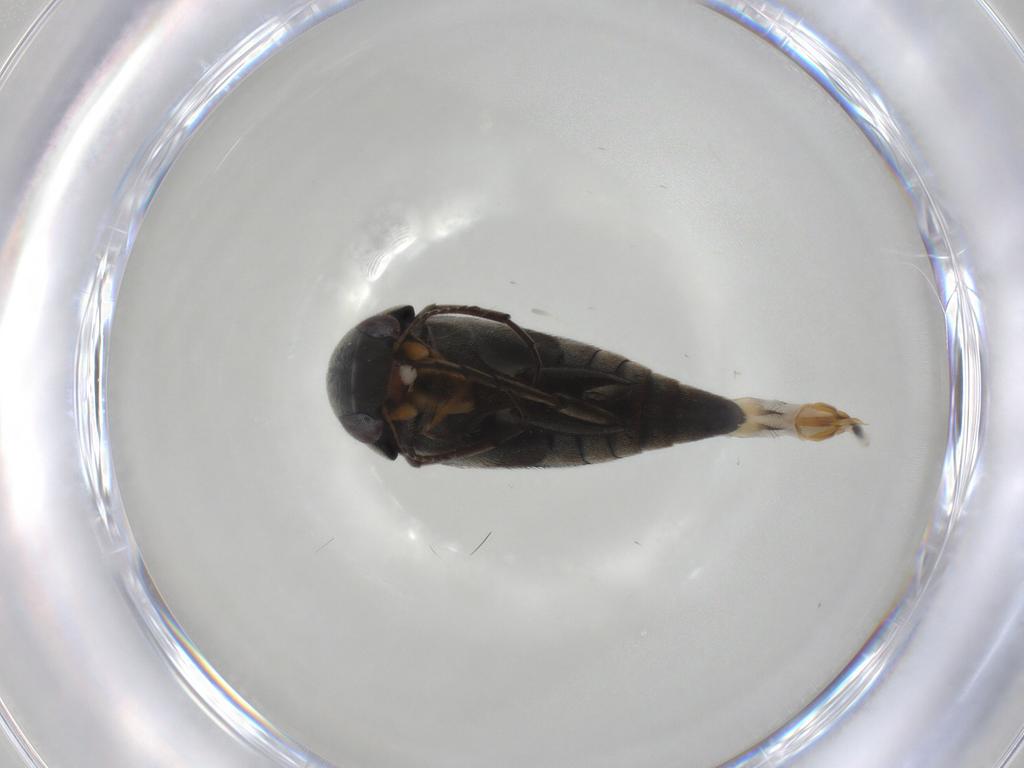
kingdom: Animalia
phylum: Arthropoda
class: Insecta
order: Coleoptera
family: Mordellidae
